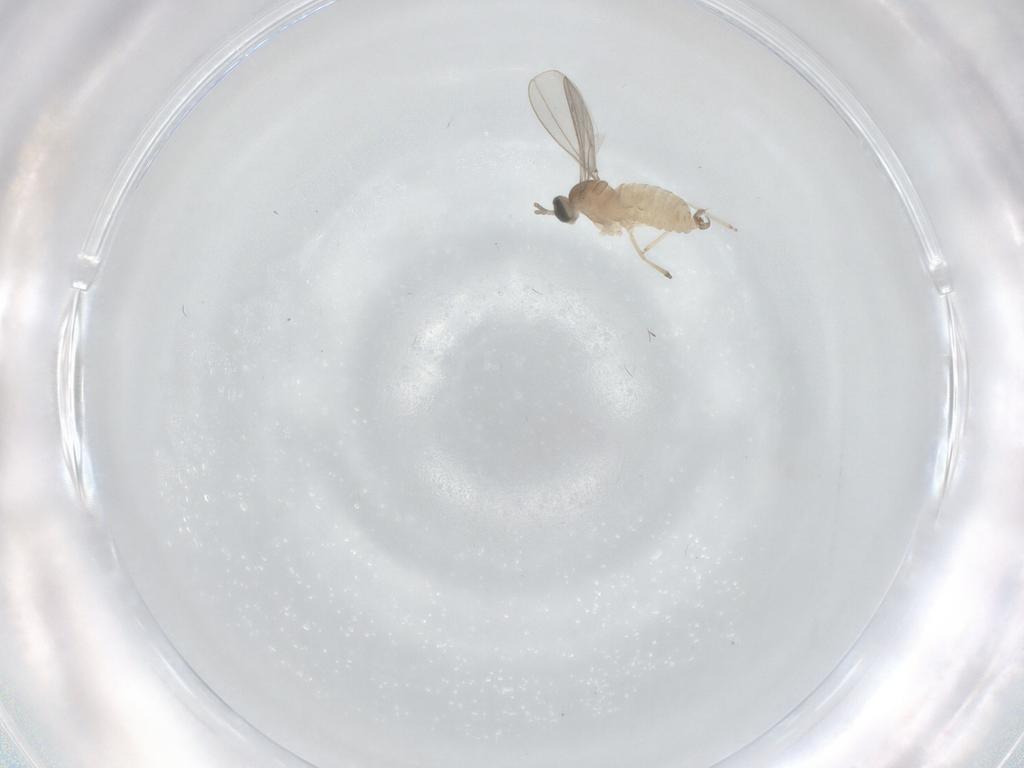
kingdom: Animalia
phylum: Arthropoda
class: Insecta
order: Diptera
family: Cecidomyiidae
